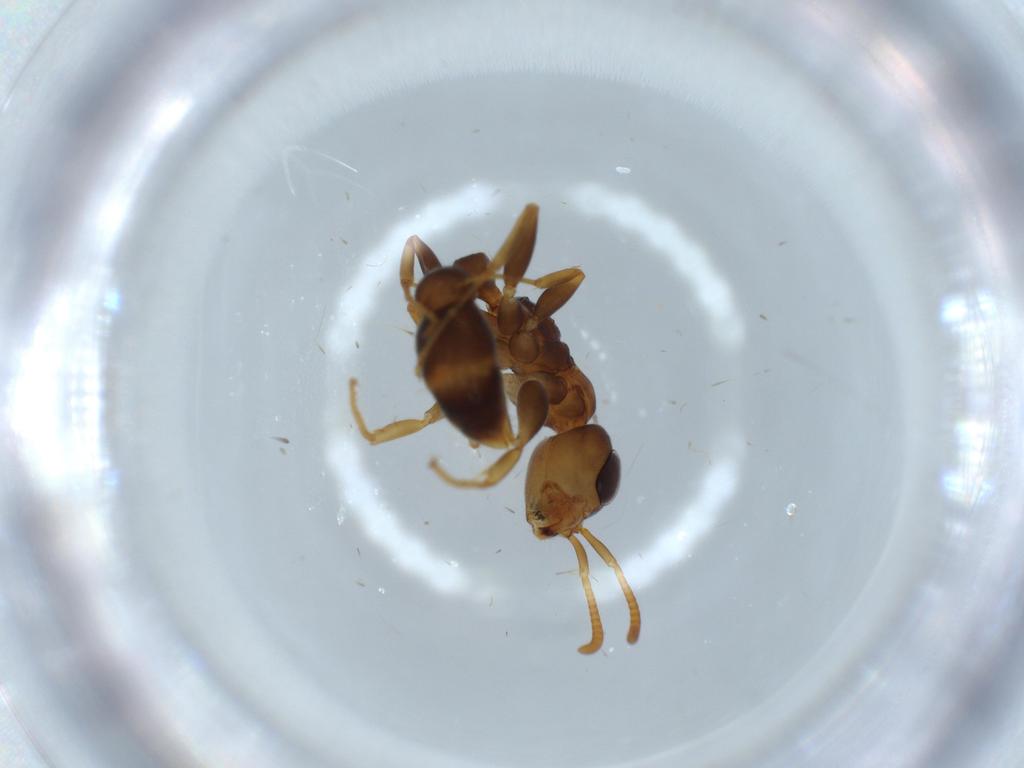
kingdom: Animalia
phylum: Arthropoda
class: Insecta
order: Hymenoptera
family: Formicidae
